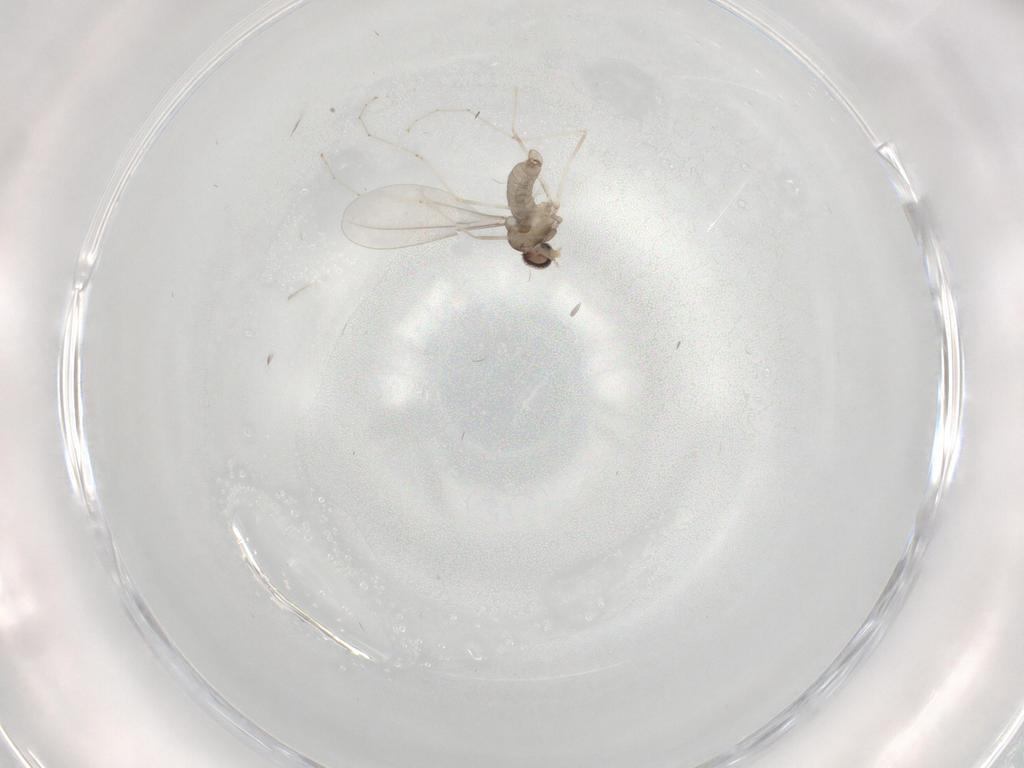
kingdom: Animalia
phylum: Arthropoda
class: Insecta
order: Diptera
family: Cecidomyiidae
